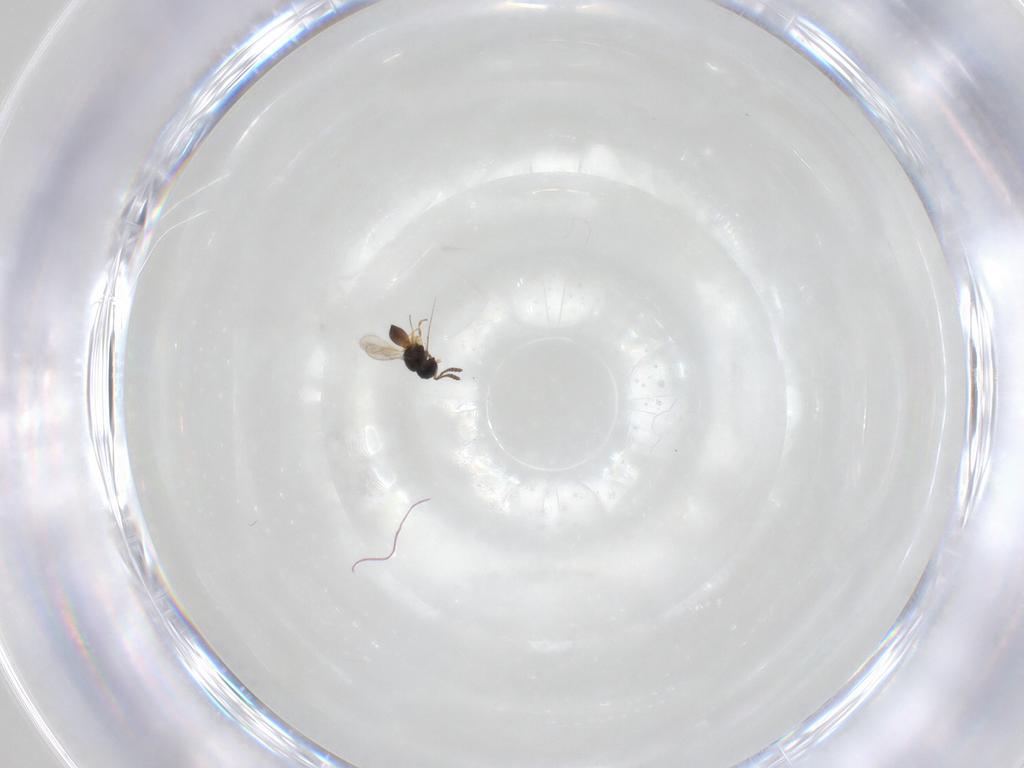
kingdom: Animalia
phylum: Arthropoda
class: Insecta
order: Hymenoptera
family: Scelionidae
